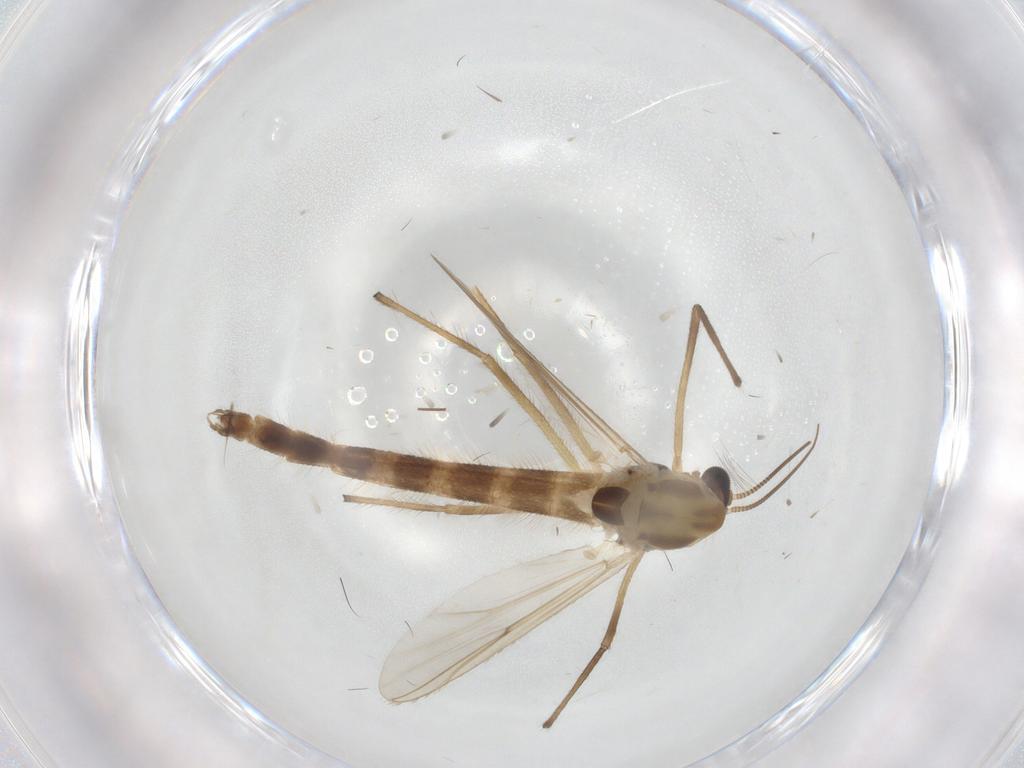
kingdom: Animalia
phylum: Arthropoda
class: Insecta
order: Diptera
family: Chironomidae
